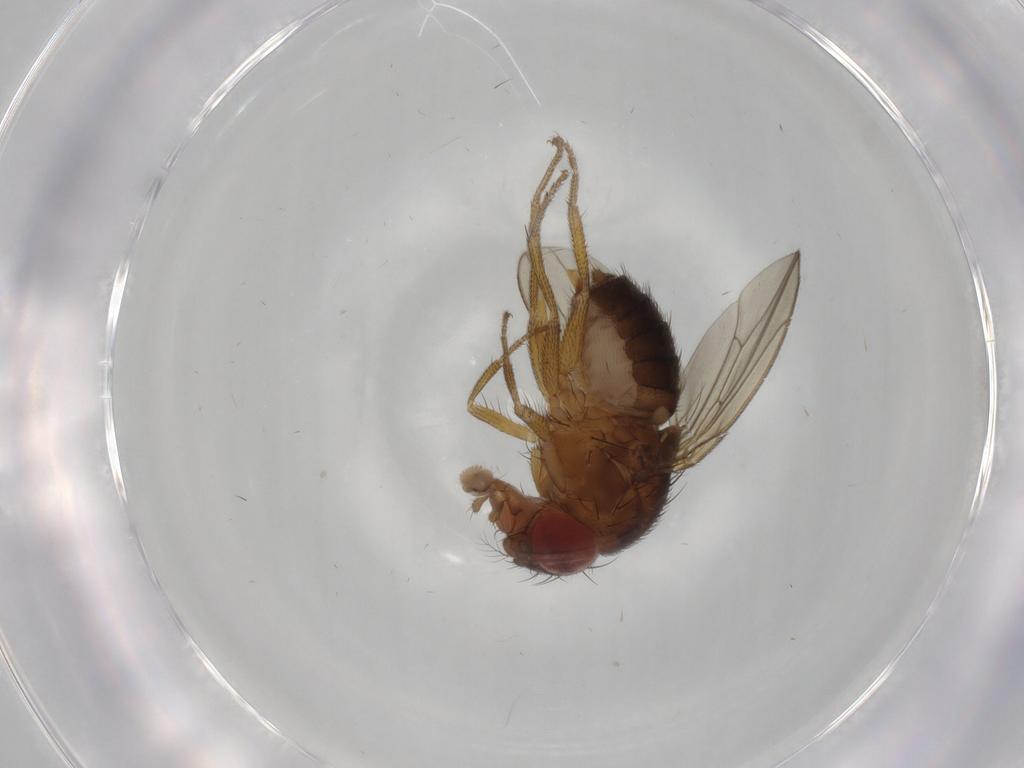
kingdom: Animalia
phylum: Arthropoda
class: Insecta
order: Diptera
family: Drosophilidae
